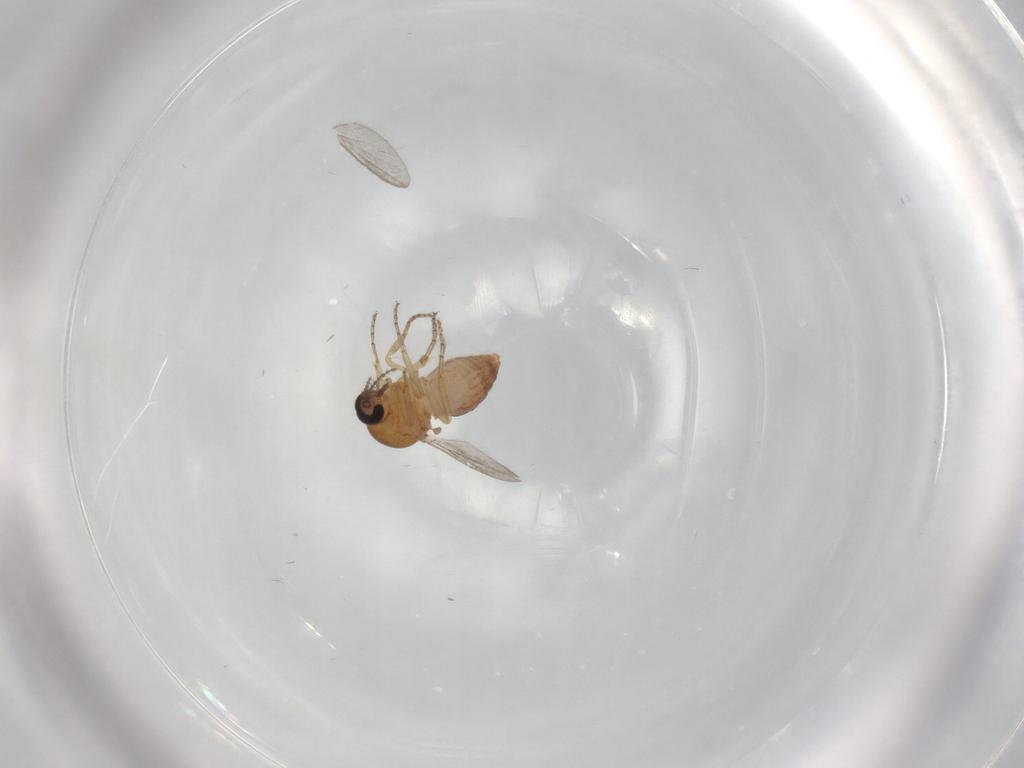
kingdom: Animalia
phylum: Arthropoda
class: Insecta
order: Diptera
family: Ceratopogonidae
